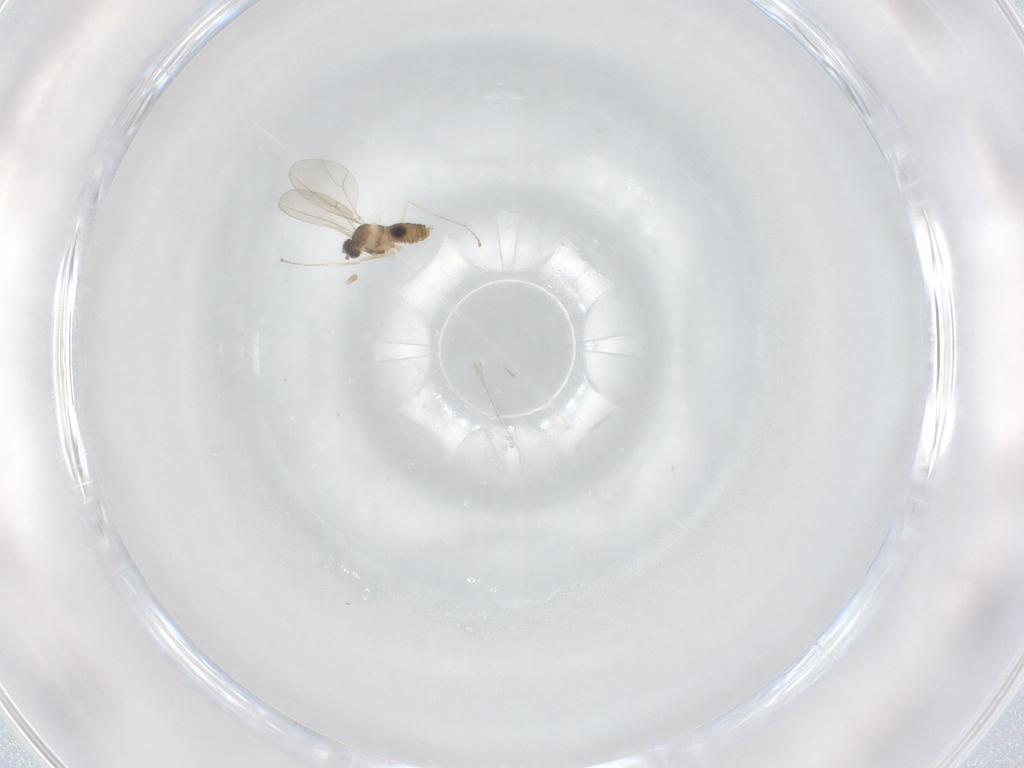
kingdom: Animalia
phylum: Arthropoda
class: Insecta
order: Diptera
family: Cecidomyiidae
